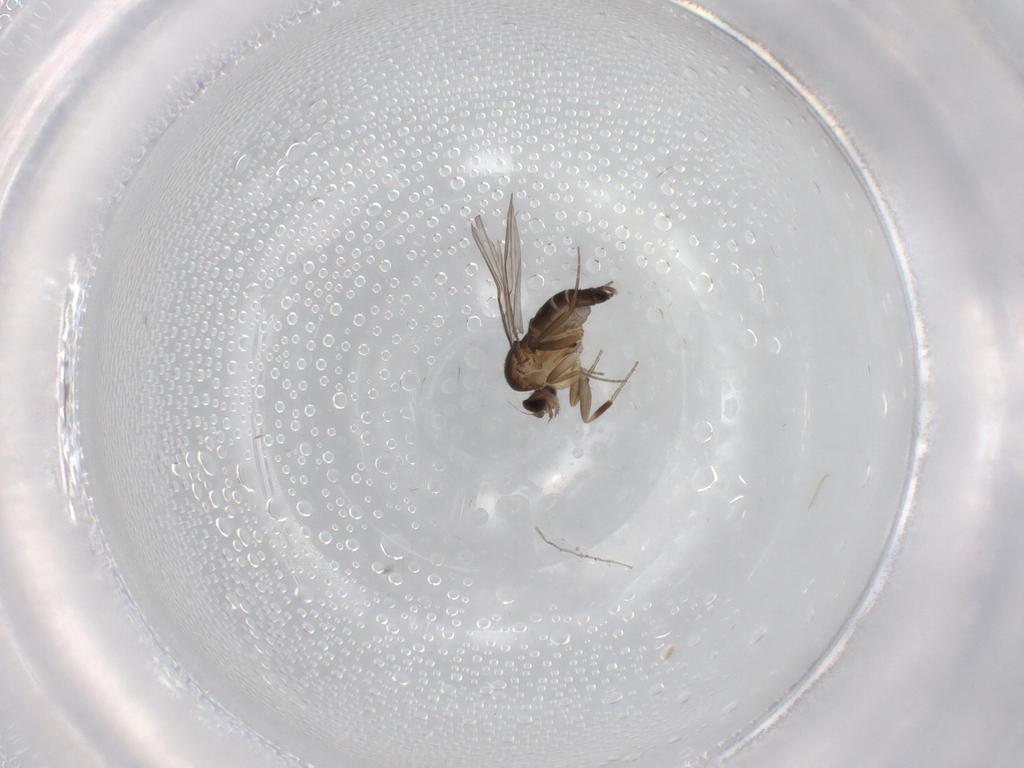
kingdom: Animalia
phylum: Arthropoda
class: Insecta
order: Diptera
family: Phoridae
